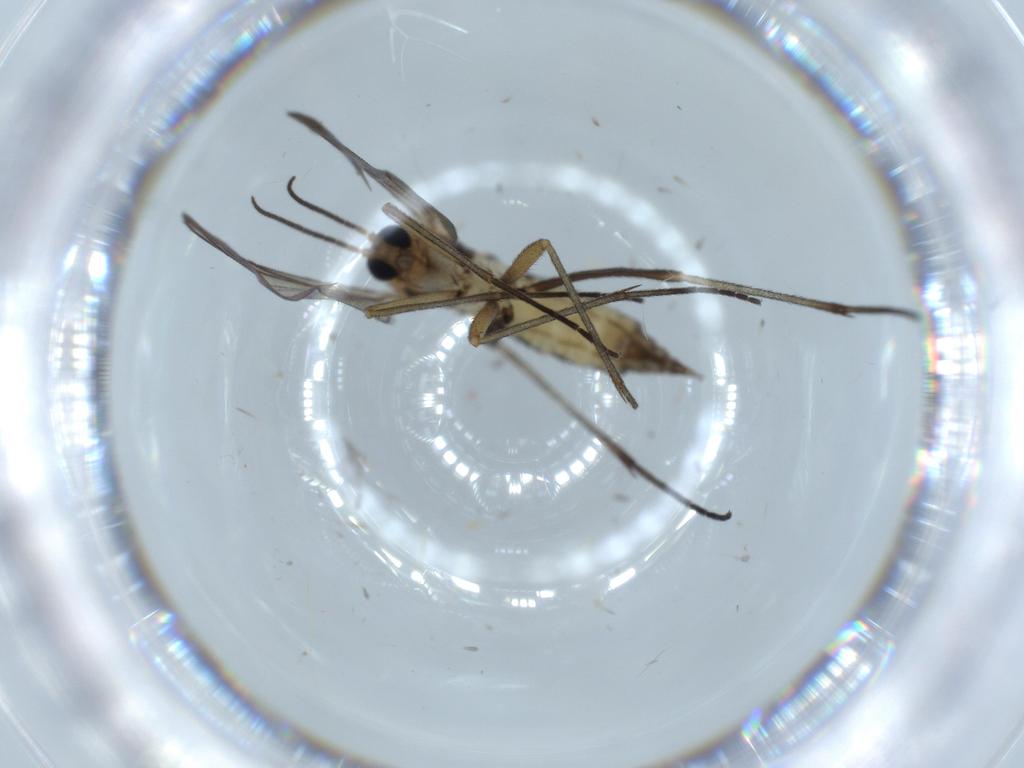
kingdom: Animalia
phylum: Arthropoda
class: Insecta
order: Diptera
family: Sciaridae
